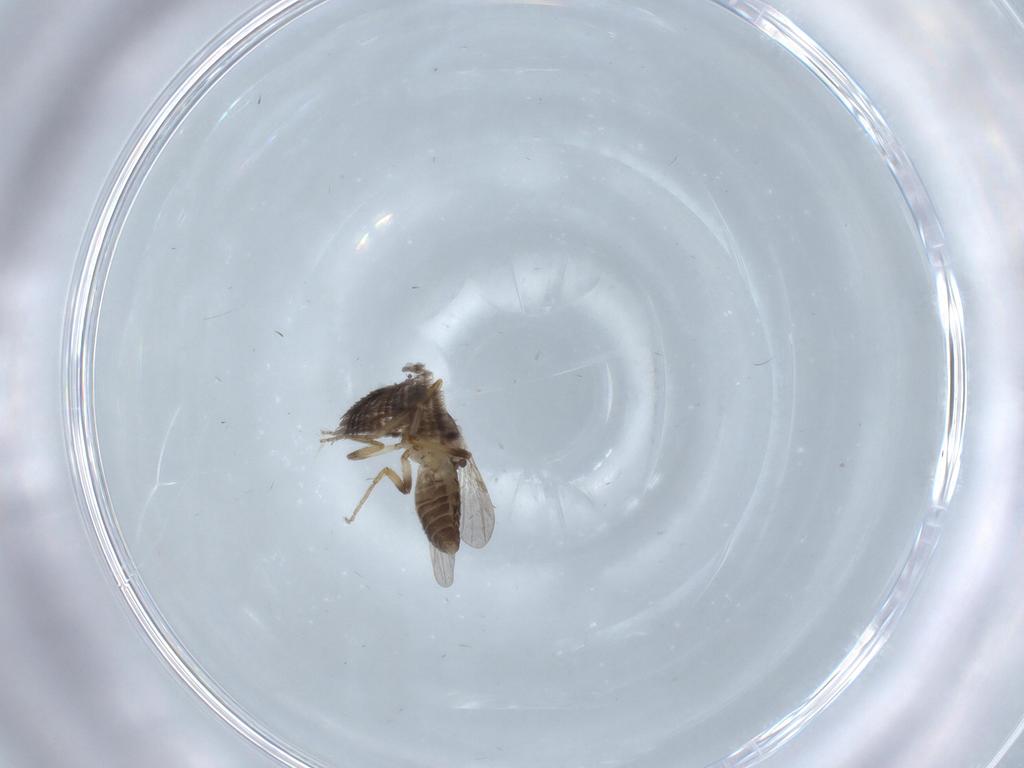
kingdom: Animalia
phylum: Arthropoda
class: Insecta
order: Diptera
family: Ceratopogonidae
